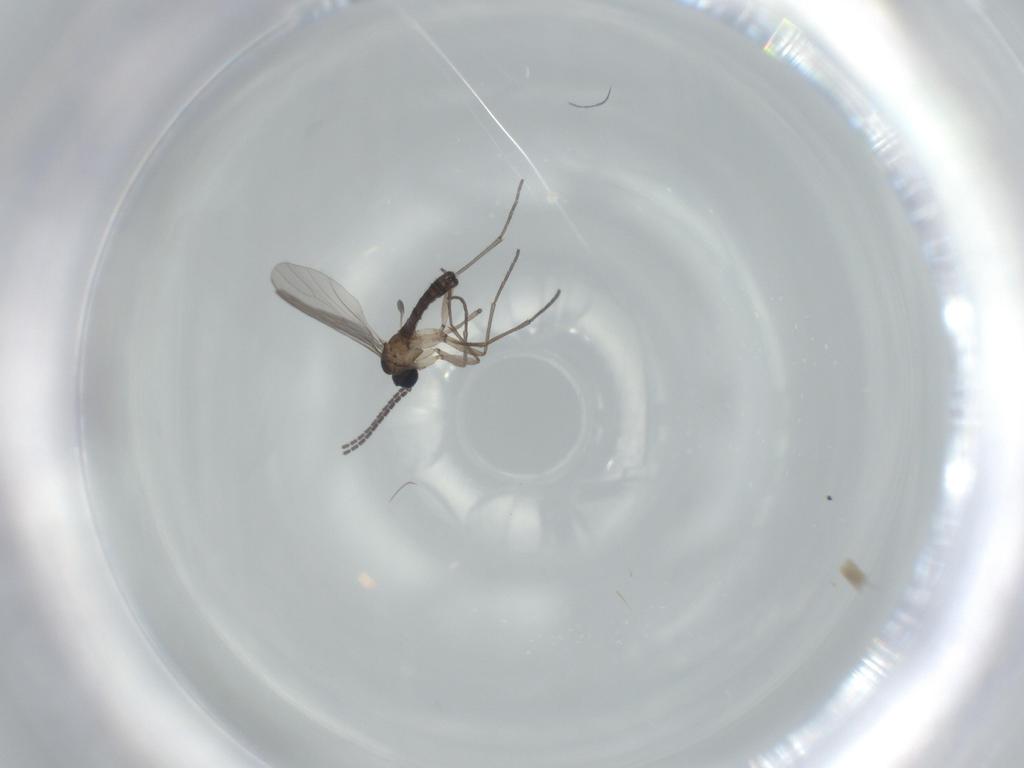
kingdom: Animalia
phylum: Arthropoda
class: Insecta
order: Diptera
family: Sciaridae
